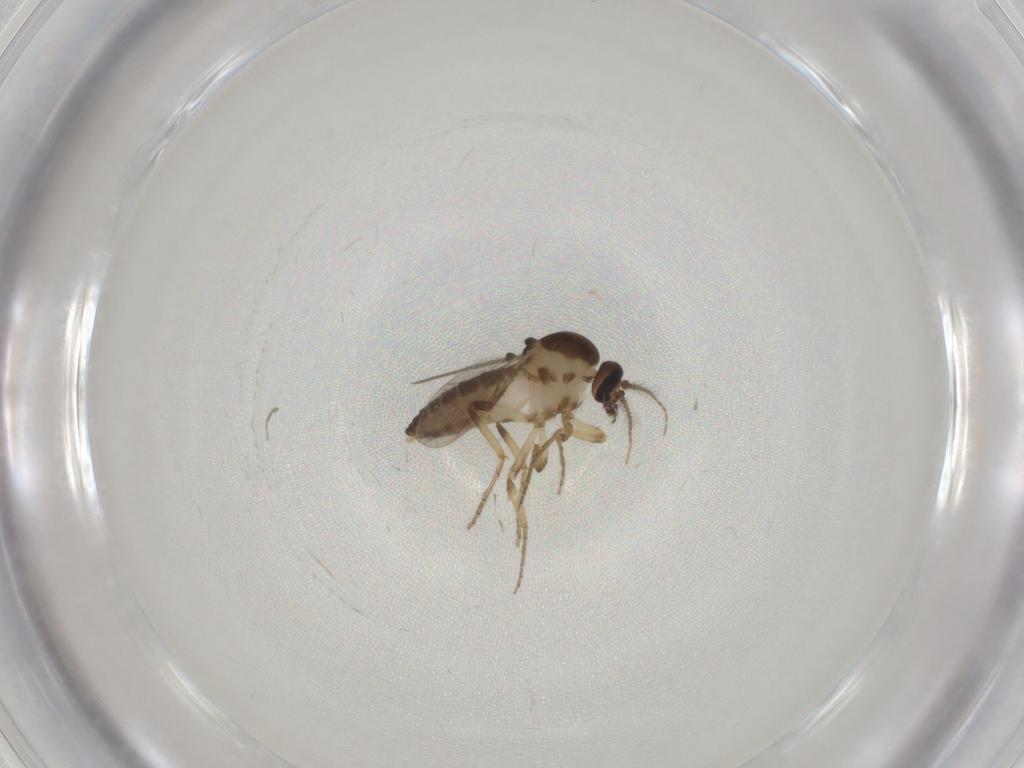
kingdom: Animalia
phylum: Arthropoda
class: Insecta
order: Diptera
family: Ceratopogonidae
